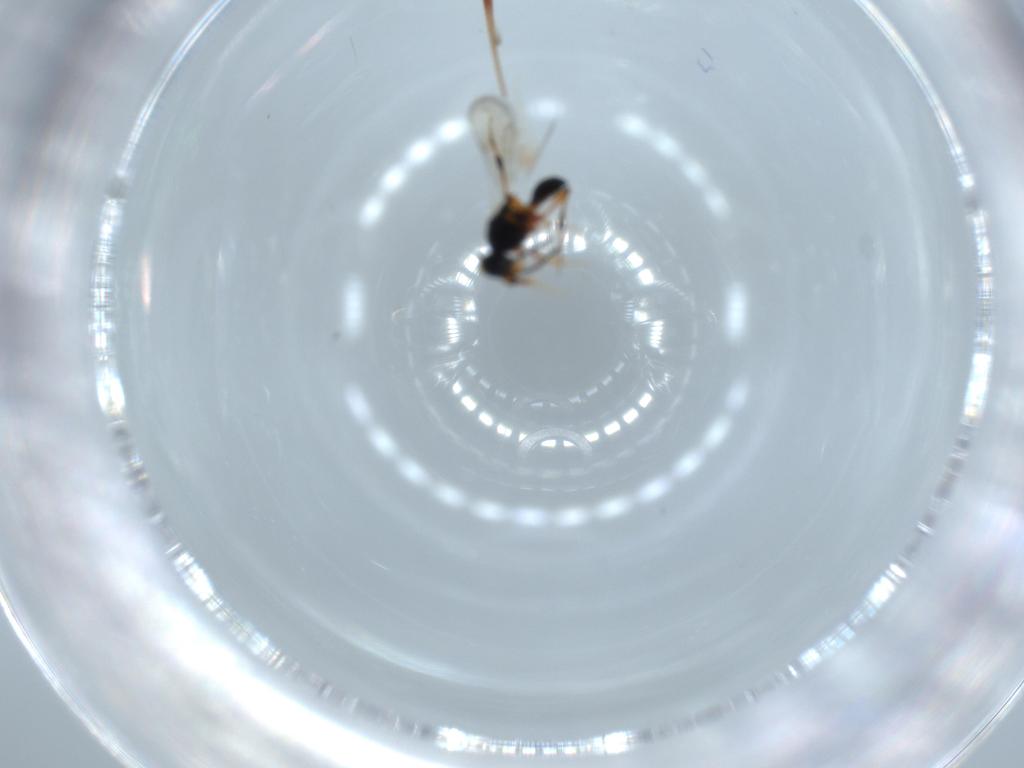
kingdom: Animalia
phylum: Arthropoda
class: Insecta
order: Hymenoptera
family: Platygastridae
